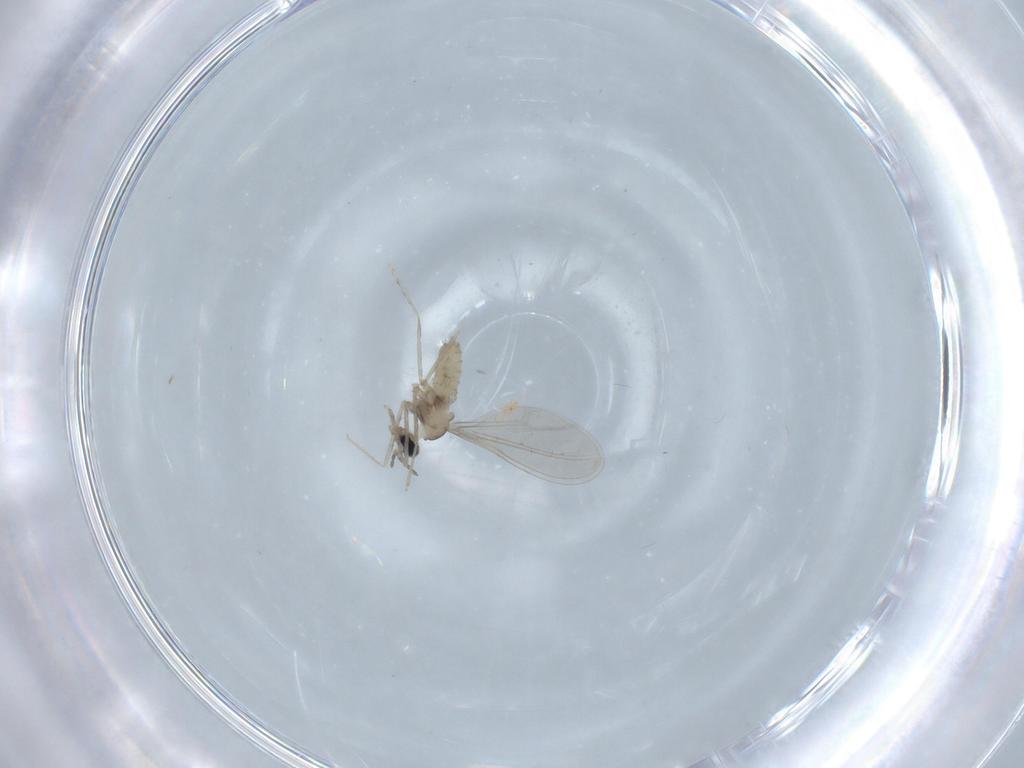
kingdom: Animalia
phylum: Arthropoda
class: Insecta
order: Diptera
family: Cecidomyiidae
